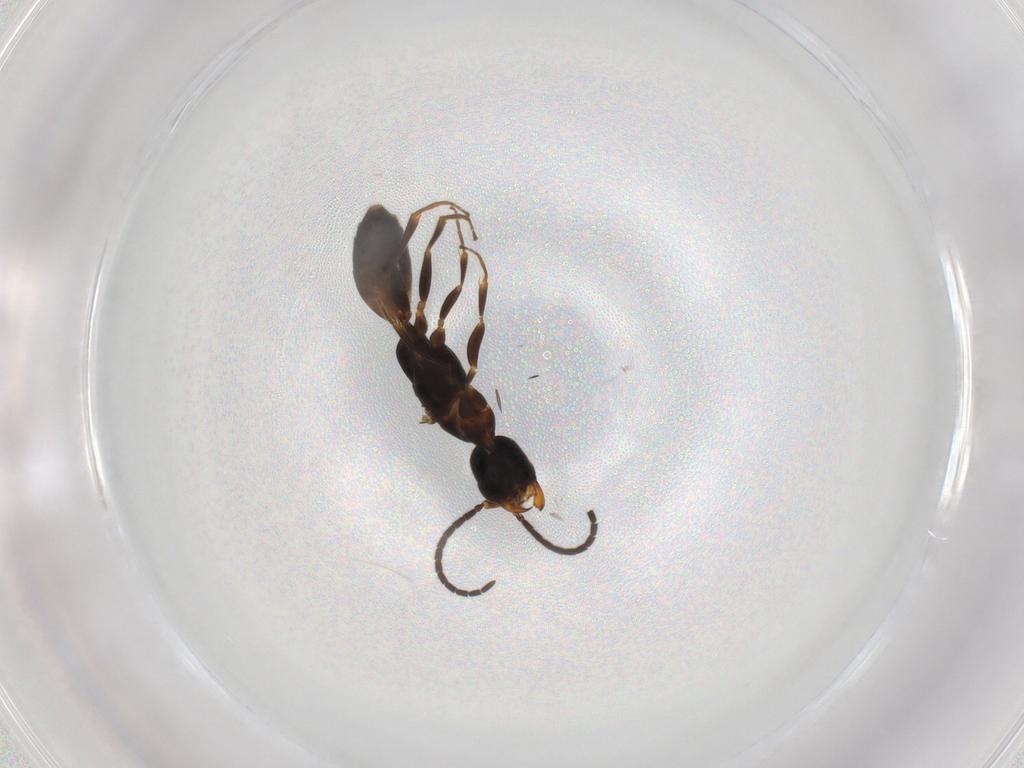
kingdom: Animalia
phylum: Arthropoda
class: Insecta
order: Hymenoptera
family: Bethylidae
